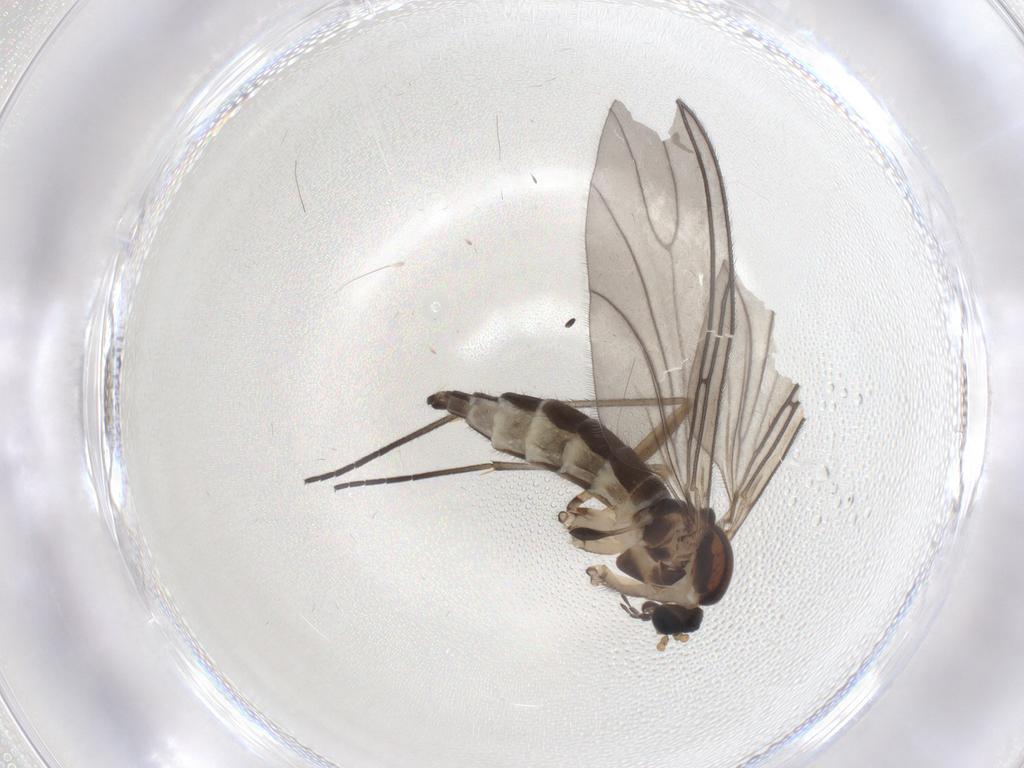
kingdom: Animalia
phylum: Arthropoda
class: Insecta
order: Diptera
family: Sciaridae
